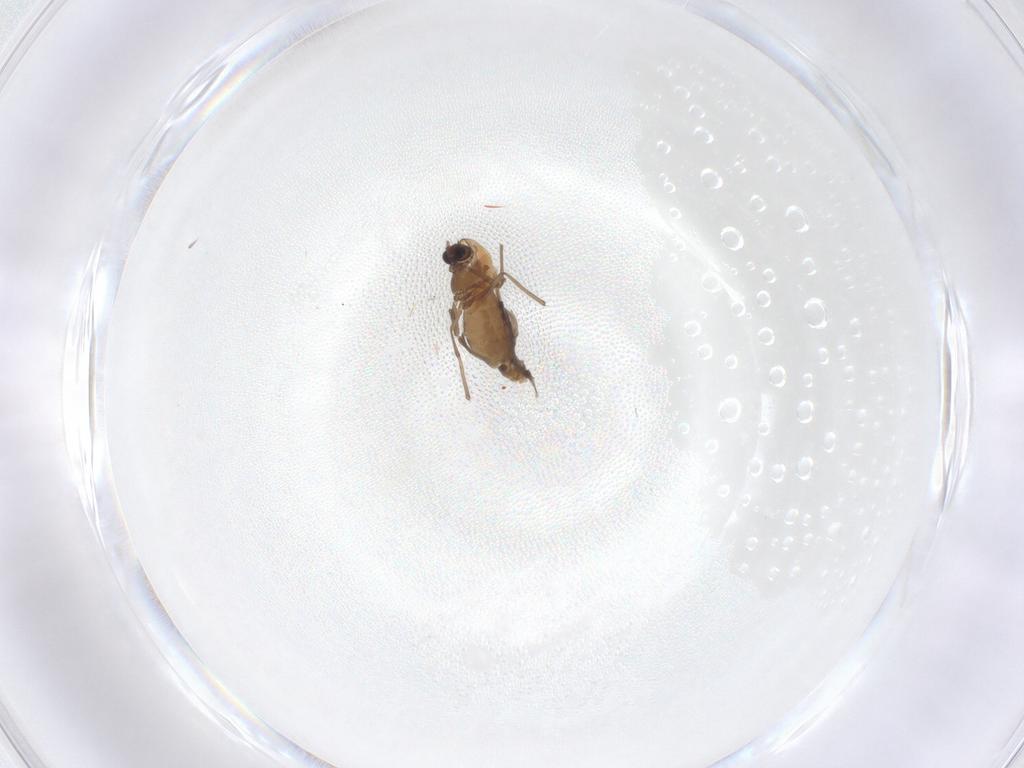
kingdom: Animalia
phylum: Arthropoda
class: Insecta
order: Diptera
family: Chironomidae
